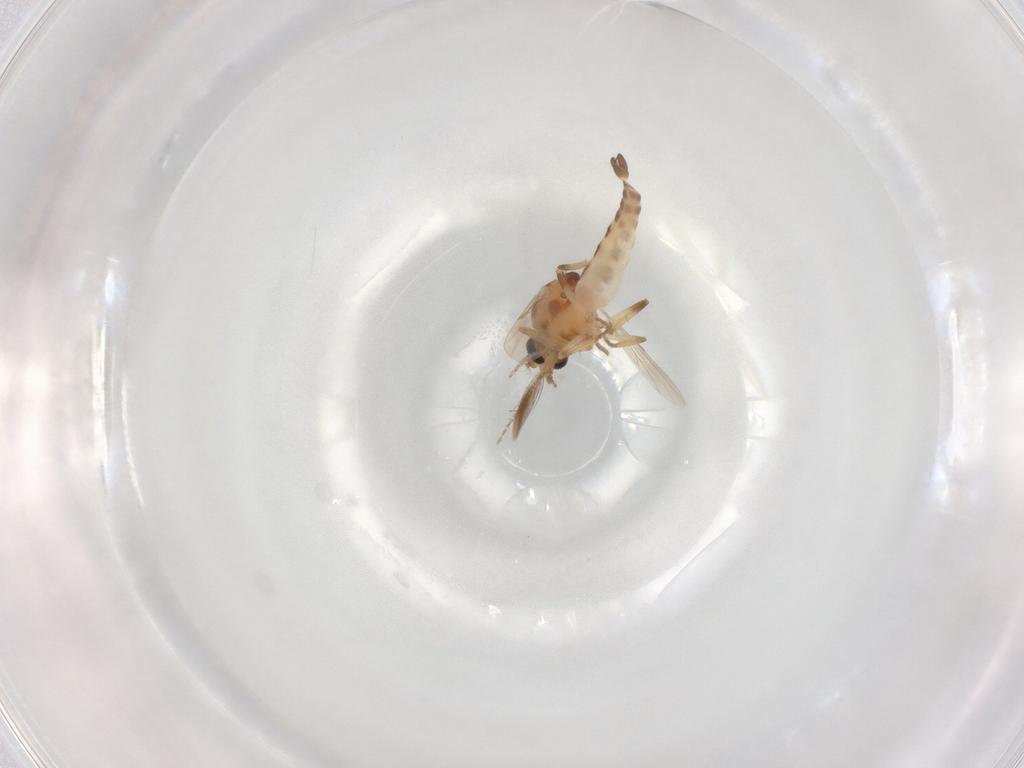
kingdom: Animalia
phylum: Arthropoda
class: Insecta
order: Diptera
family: Ceratopogonidae
